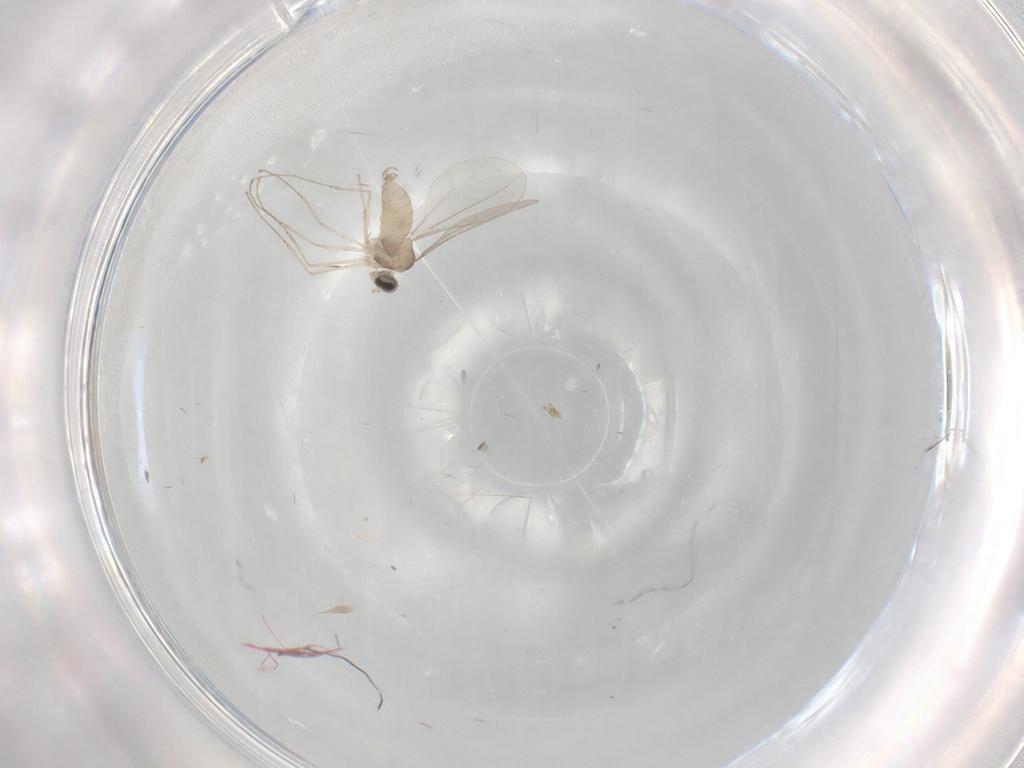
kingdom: Animalia
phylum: Arthropoda
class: Insecta
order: Diptera
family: Cecidomyiidae
